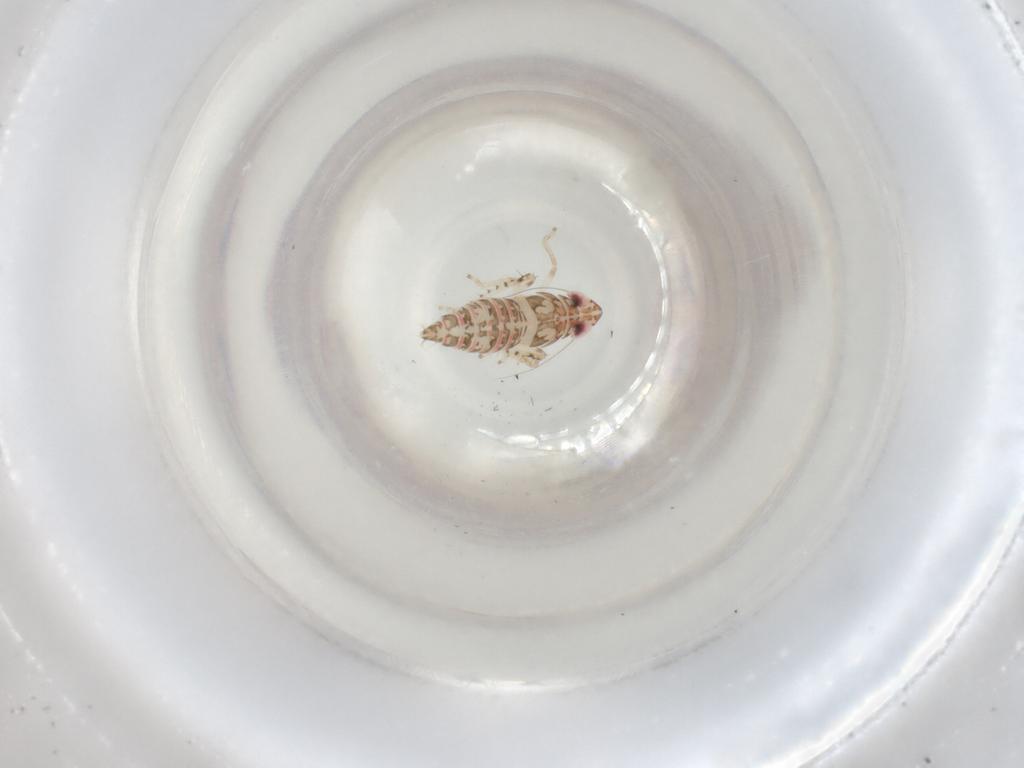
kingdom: Animalia
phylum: Arthropoda
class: Insecta
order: Hemiptera
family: Cicadellidae
